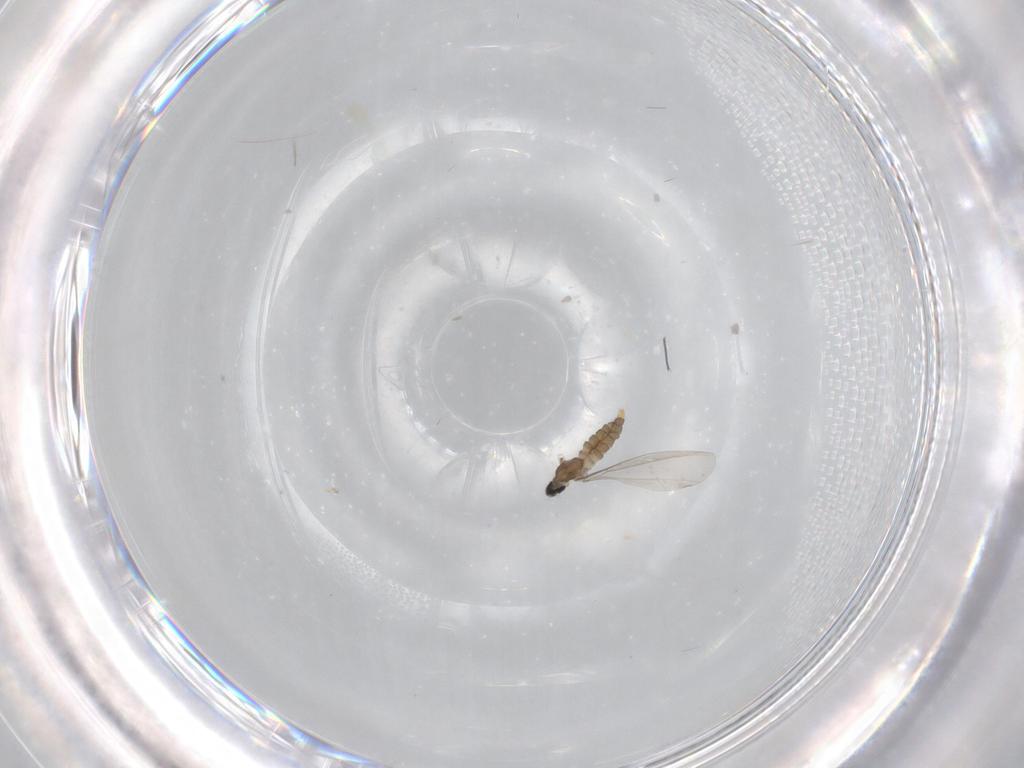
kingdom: Animalia
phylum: Arthropoda
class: Insecta
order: Diptera
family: Cecidomyiidae
